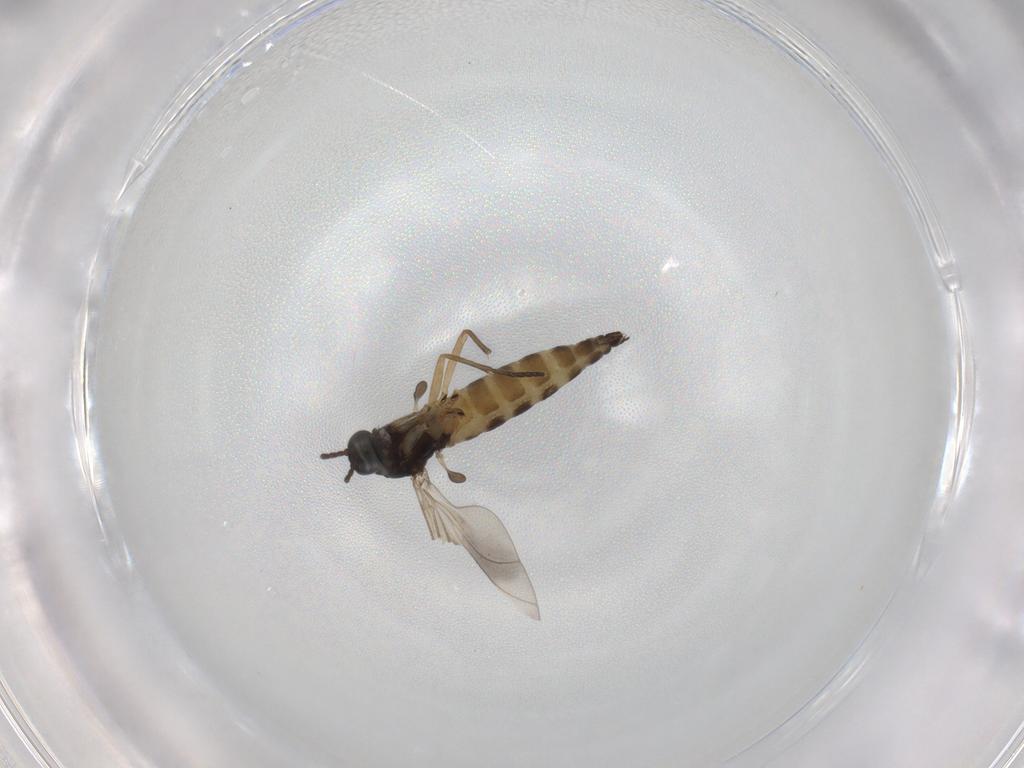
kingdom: Animalia
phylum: Arthropoda
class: Insecta
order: Diptera
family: Sciaridae
